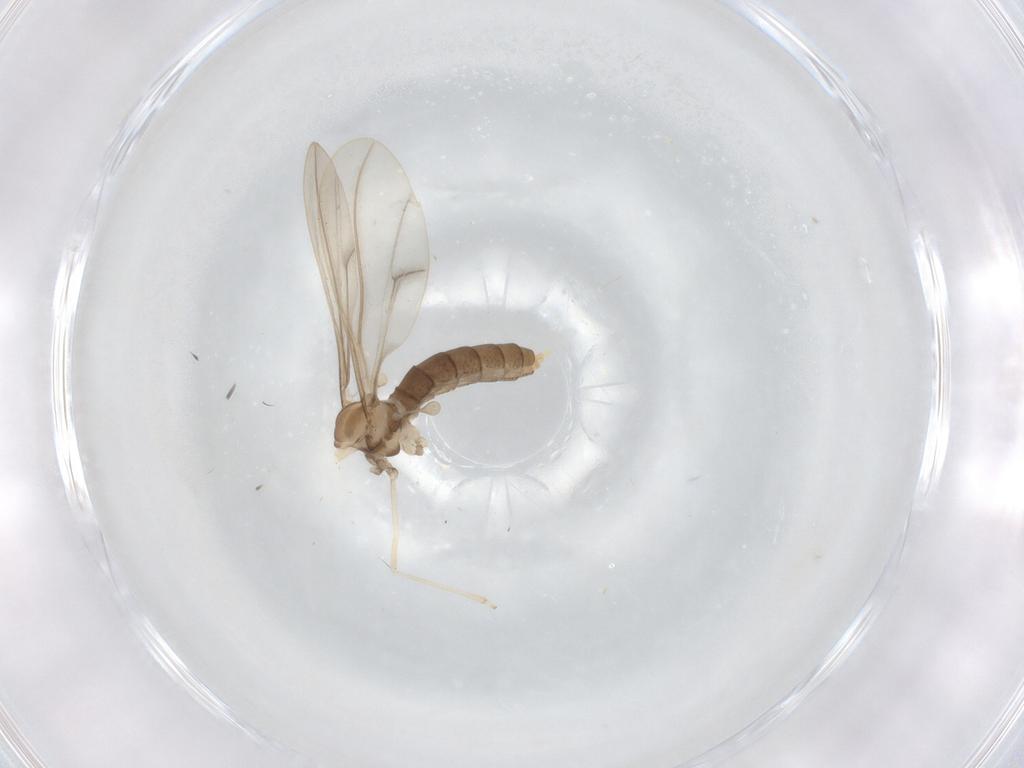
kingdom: Animalia
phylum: Arthropoda
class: Insecta
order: Diptera
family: Cecidomyiidae
